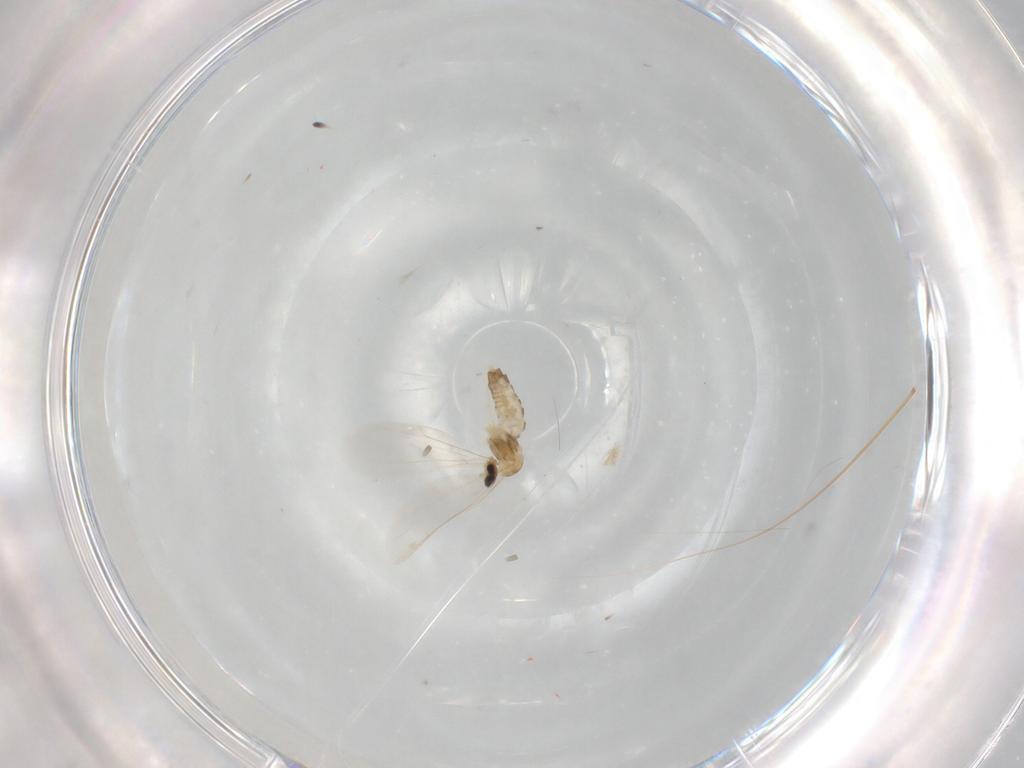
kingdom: Animalia
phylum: Arthropoda
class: Insecta
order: Diptera
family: Cecidomyiidae
